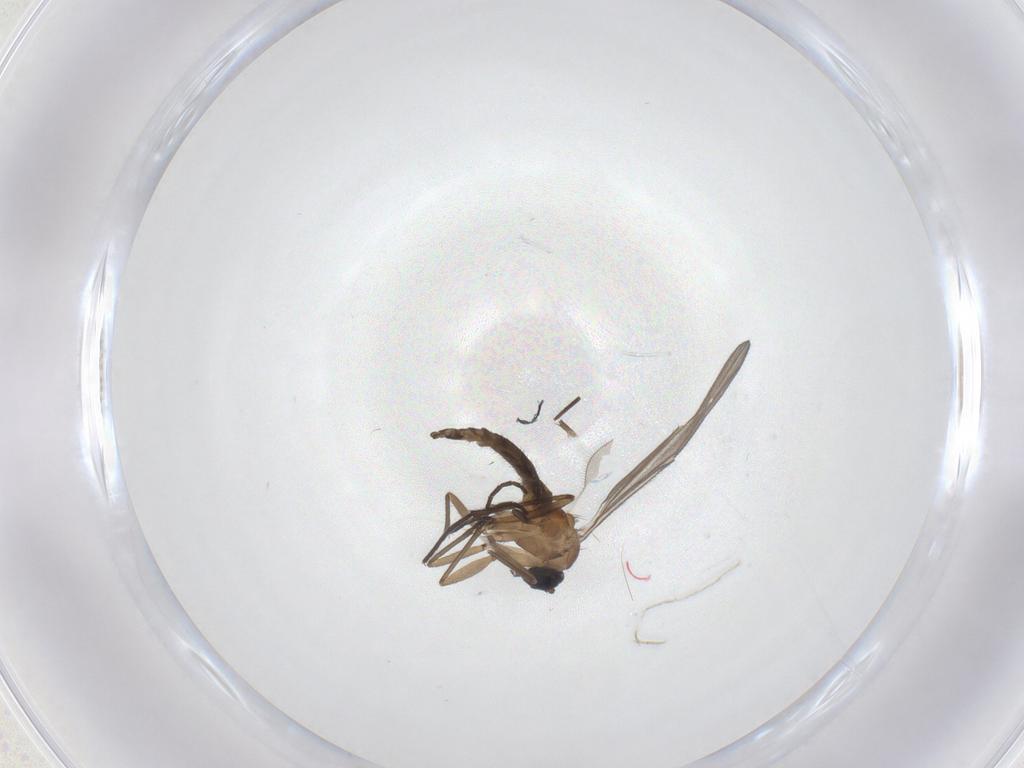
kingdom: Animalia
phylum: Arthropoda
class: Insecta
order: Diptera
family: Sciaridae
